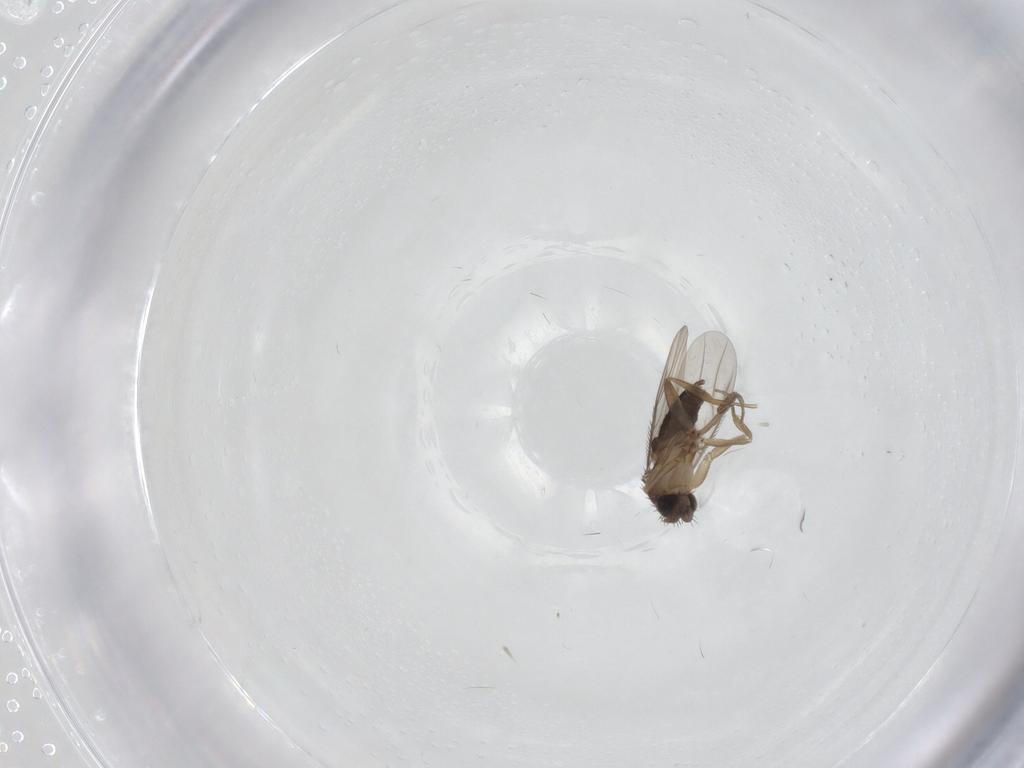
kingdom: Animalia
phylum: Arthropoda
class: Insecta
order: Diptera
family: Phoridae
